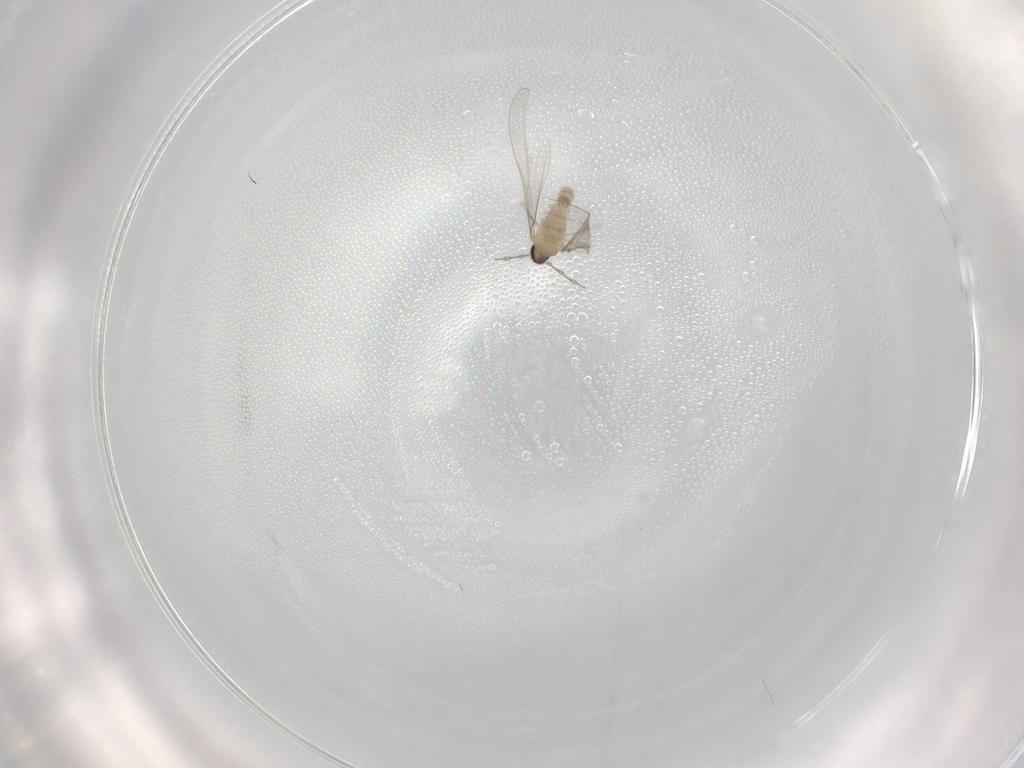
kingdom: Animalia
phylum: Arthropoda
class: Insecta
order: Diptera
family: Phoridae
